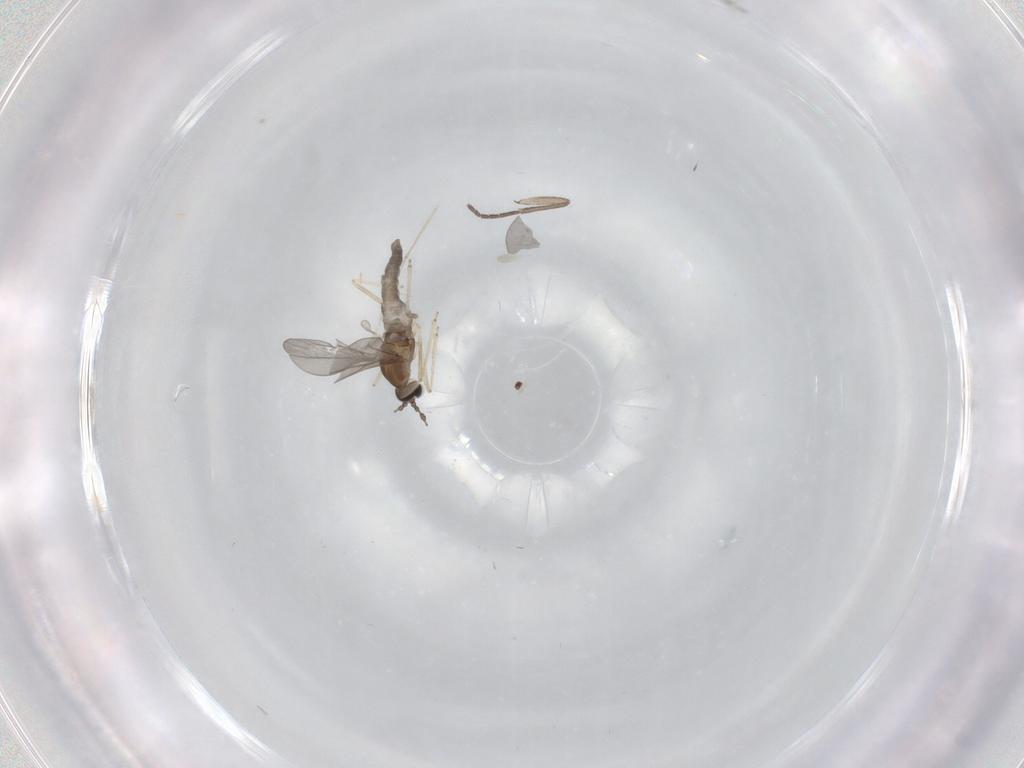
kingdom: Animalia
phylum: Arthropoda
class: Insecta
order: Diptera
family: Sciaridae
